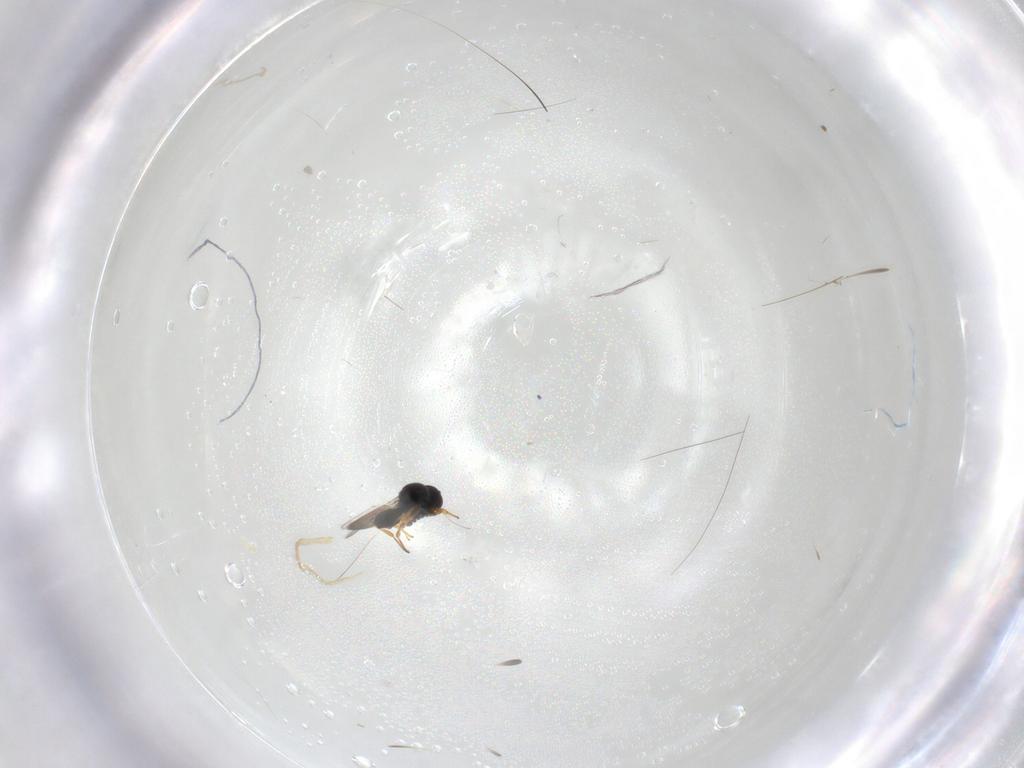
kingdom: Animalia
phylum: Arthropoda
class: Insecta
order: Hymenoptera
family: Platygastridae
